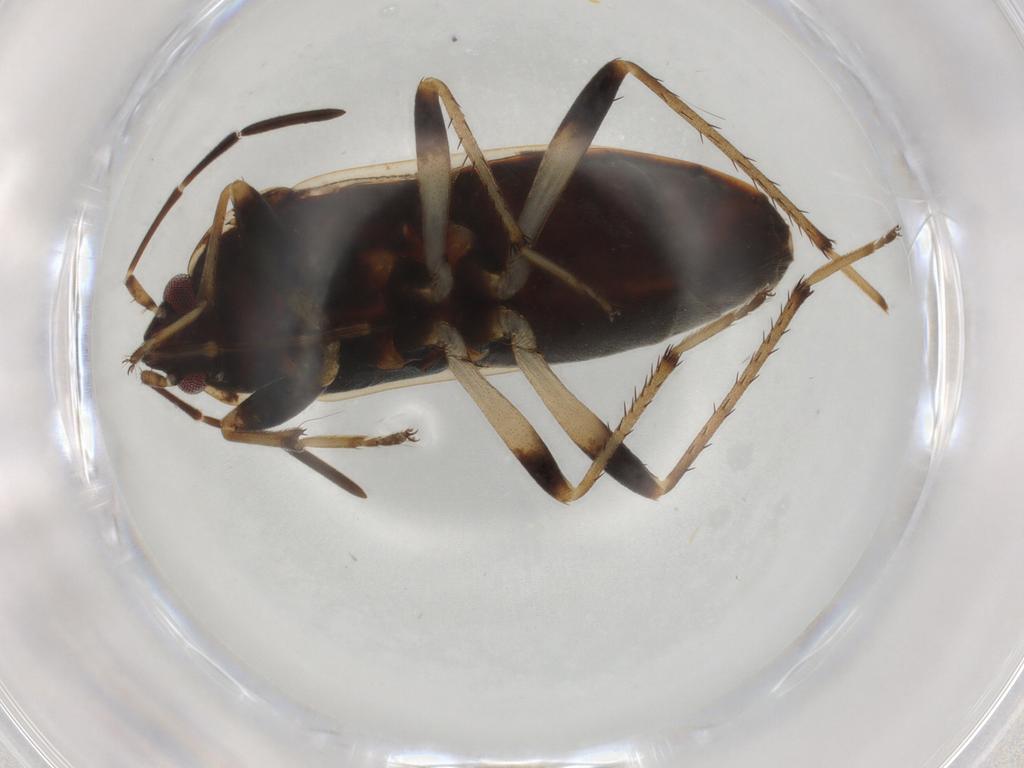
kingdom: Animalia
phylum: Arthropoda
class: Insecta
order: Hemiptera
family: Rhyparochromidae
